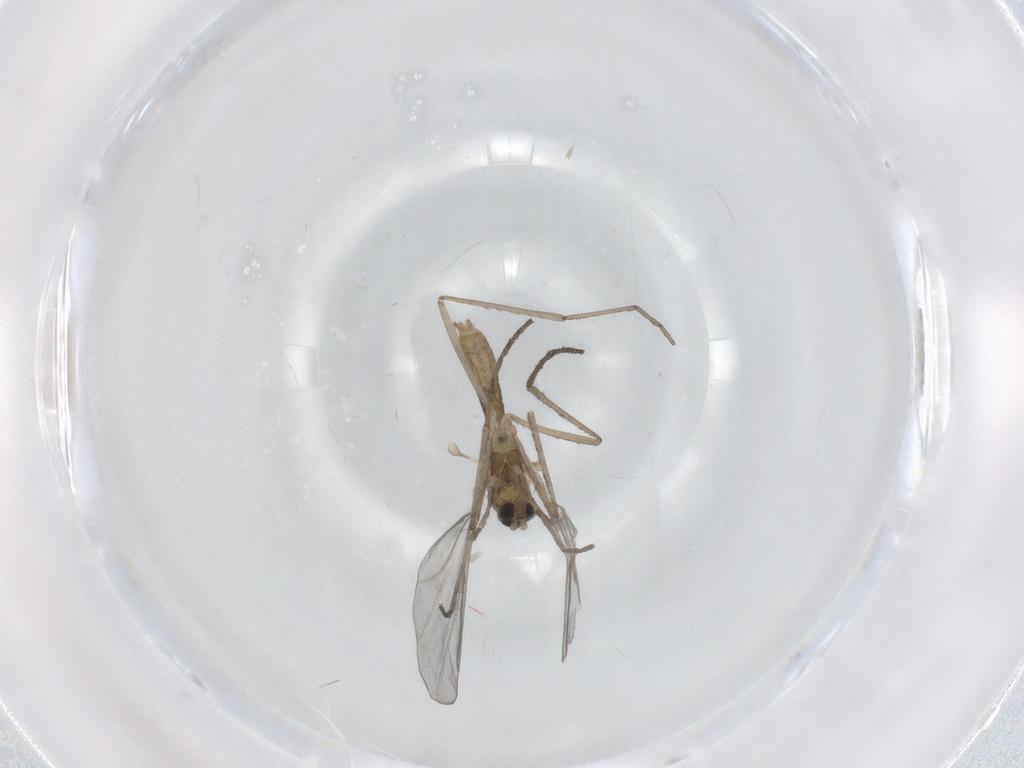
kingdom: Animalia
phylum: Arthropoda
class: Insecta
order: Diptera
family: Cecidomyiidae
